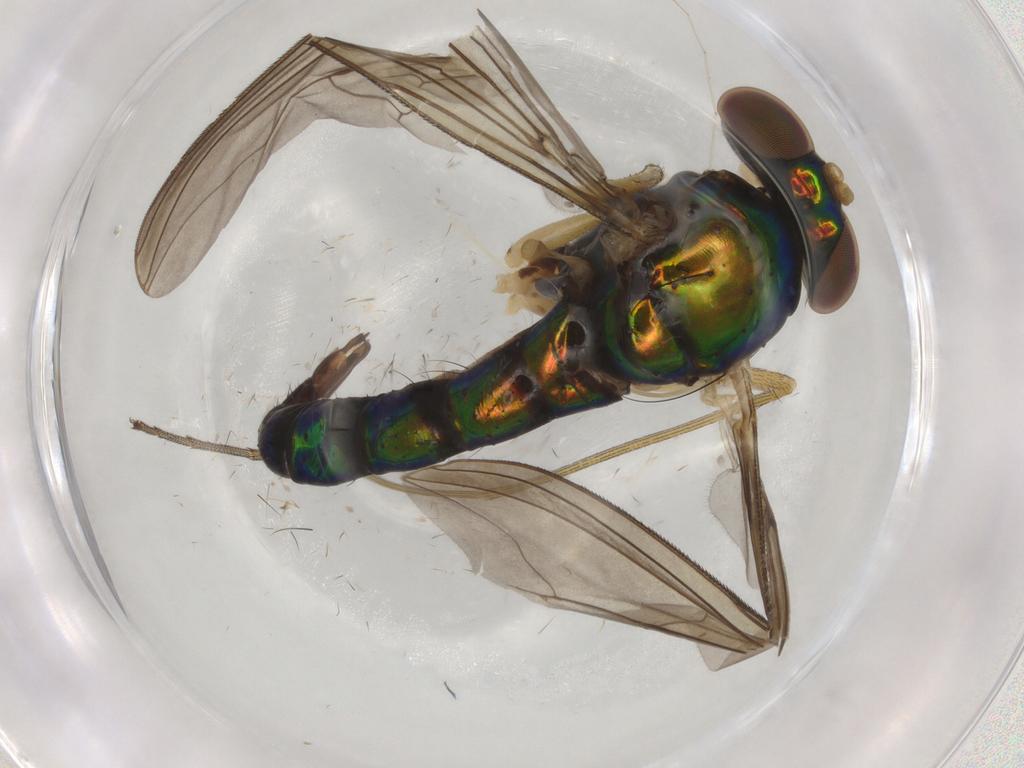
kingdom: Animalia
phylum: Arthropoda
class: Insecta
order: Diptera
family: Dolichopodidae
